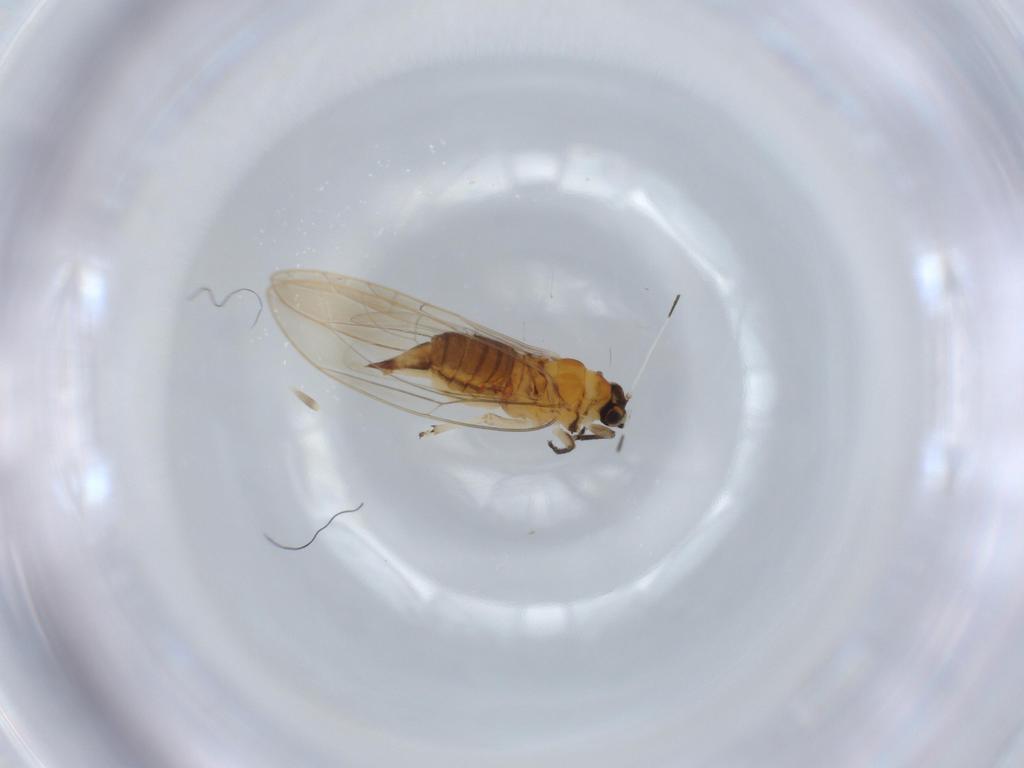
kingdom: Animalia
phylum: Arthropoda
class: Insecta
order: Hemiptera
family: Triozidae
